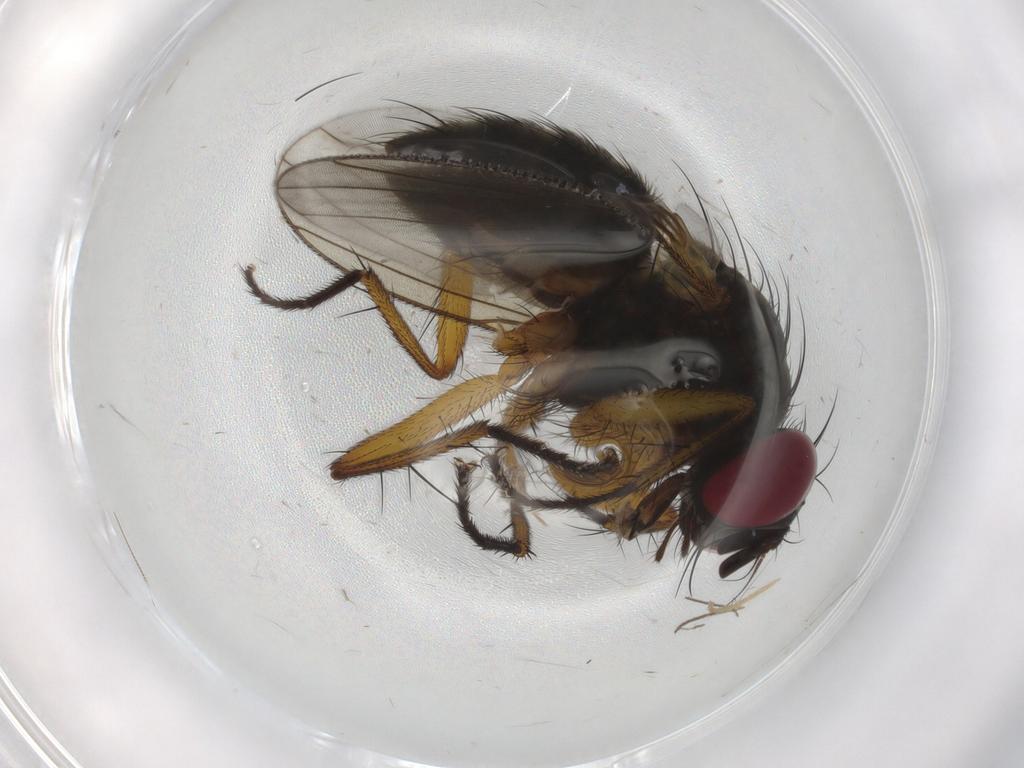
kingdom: Animalia
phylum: Arthropoda
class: Insecta
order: Diptera
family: Muscidae
